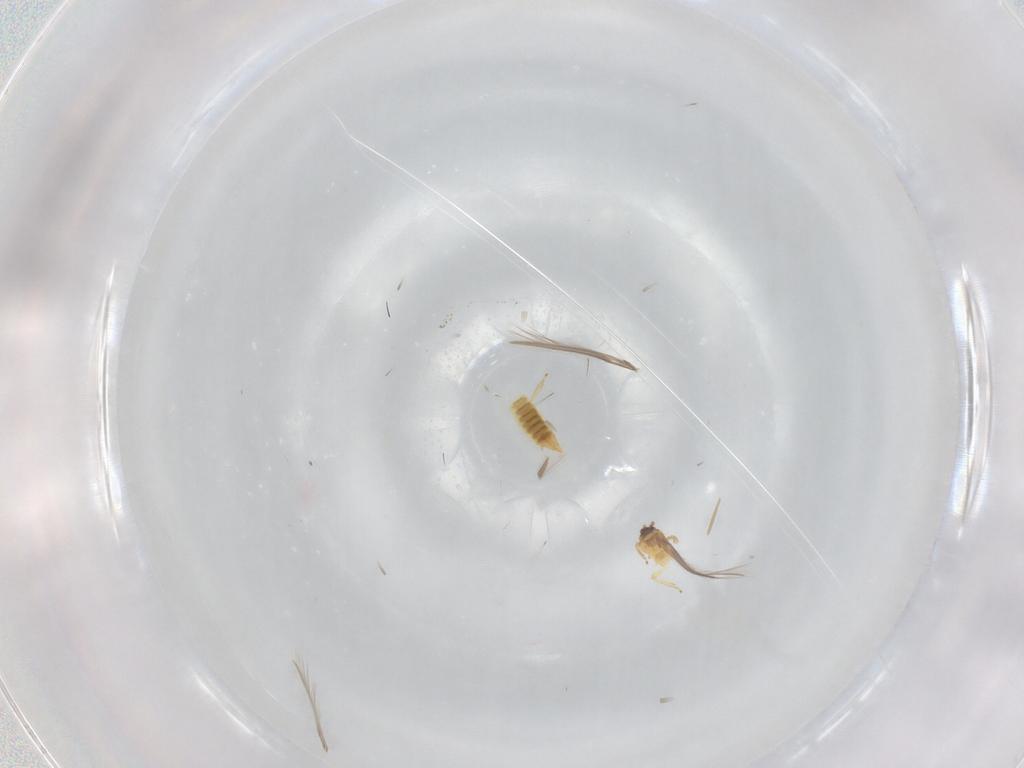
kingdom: Animalia
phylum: Arthropoda
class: Insecta
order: Thysanoptera
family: Thripidae
